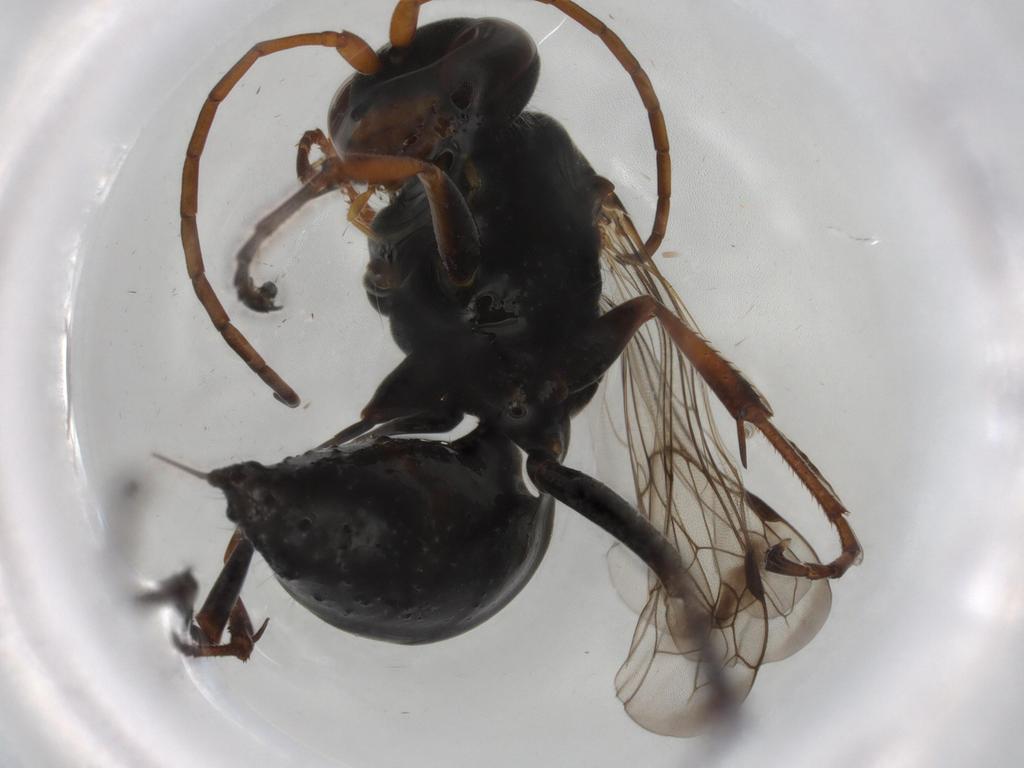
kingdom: Animalia
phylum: Arthropoda
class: Insecta
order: Hymenoptera
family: Pompilidae
